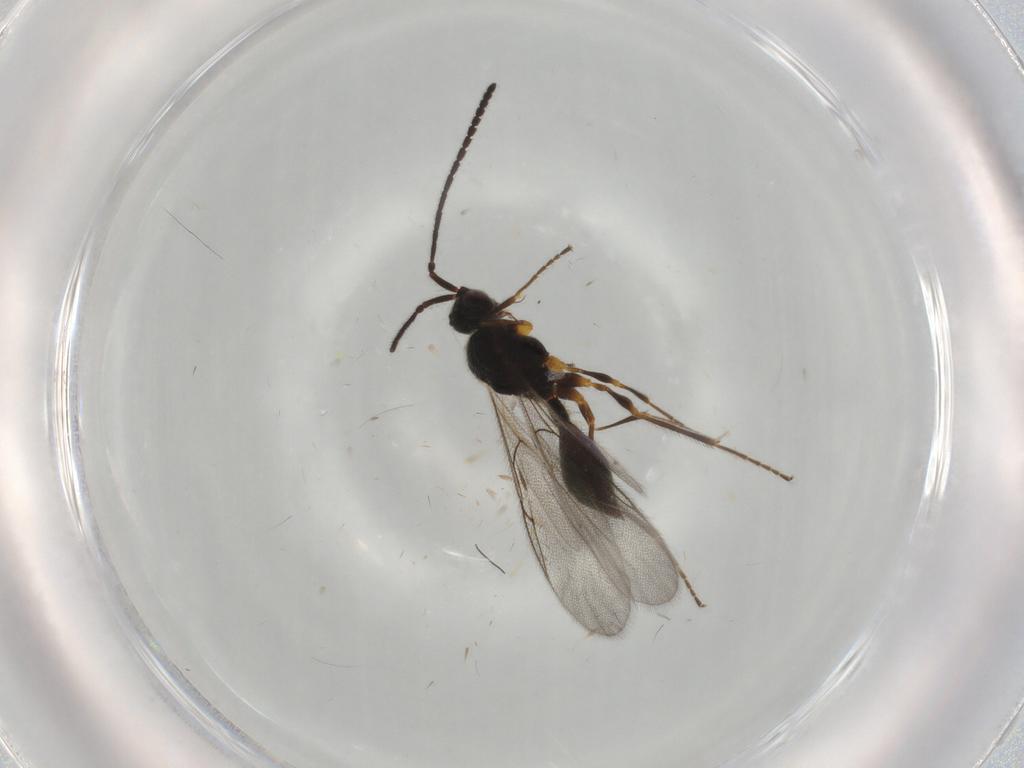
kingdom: Animalia
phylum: Arthropoda
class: Insecta
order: Hymenoptera
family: Diapriidae
